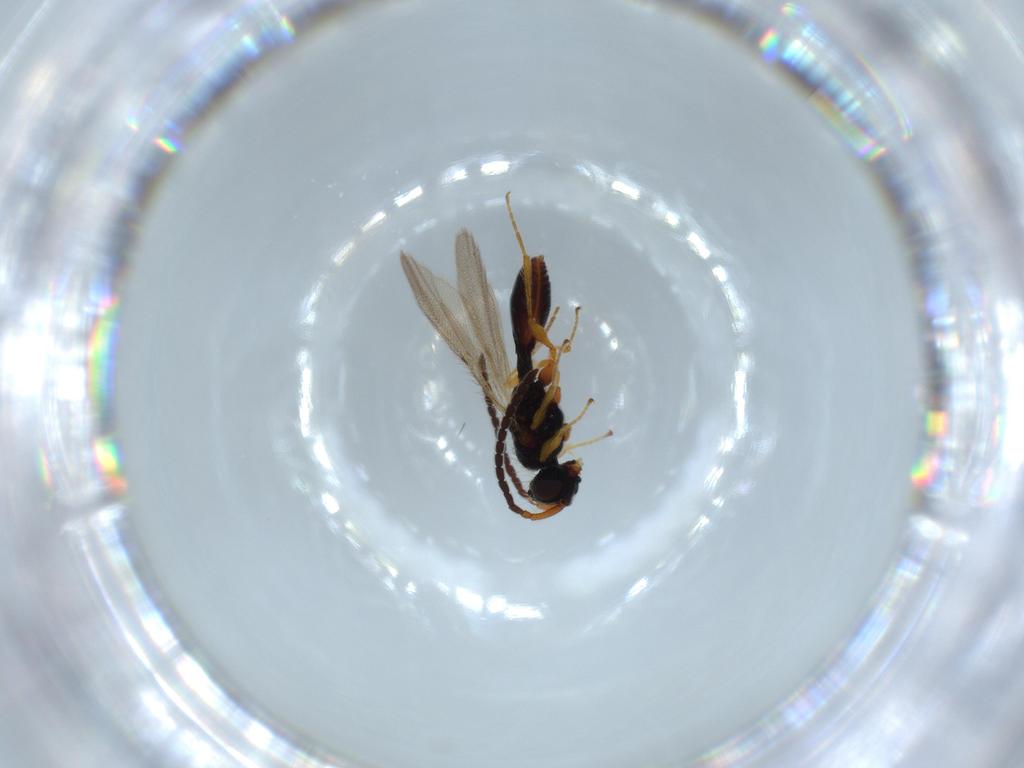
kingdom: Animalia
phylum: Arthropoda
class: Insecta
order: Hymenoptera
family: Diapriidae
